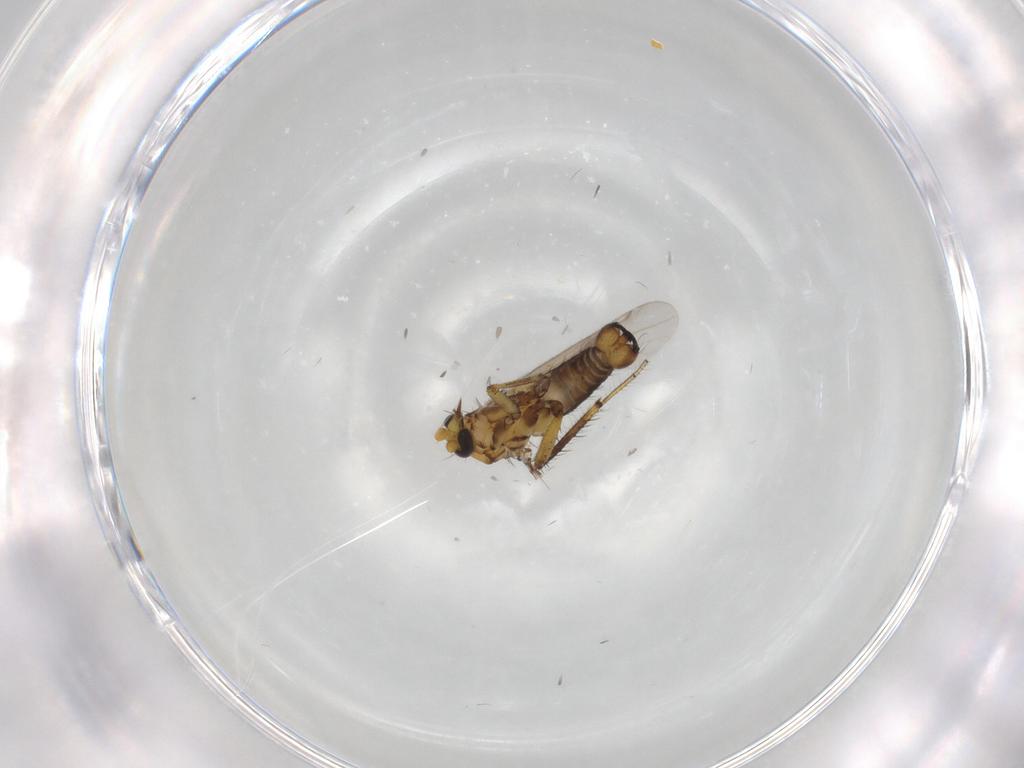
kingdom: Animalia
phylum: Arthropoda
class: Insecta
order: Diptera
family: Ceratopogonidae
